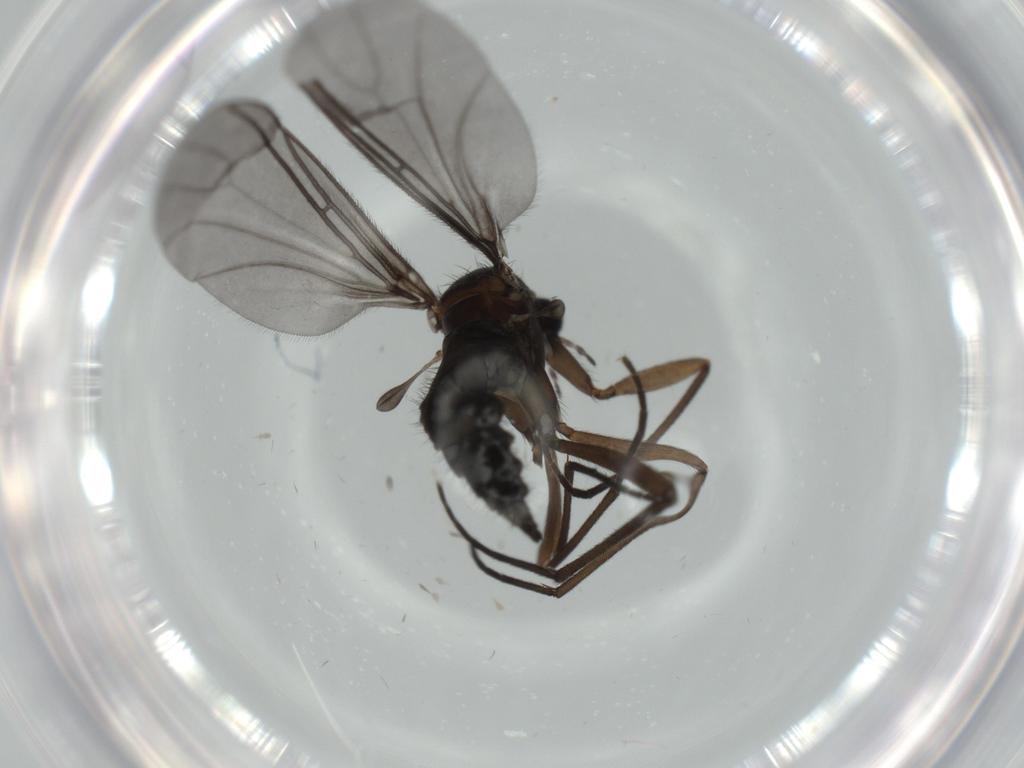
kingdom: Animalia
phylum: Arthropoda
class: Insecta
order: Diptera
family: Sciaridae
